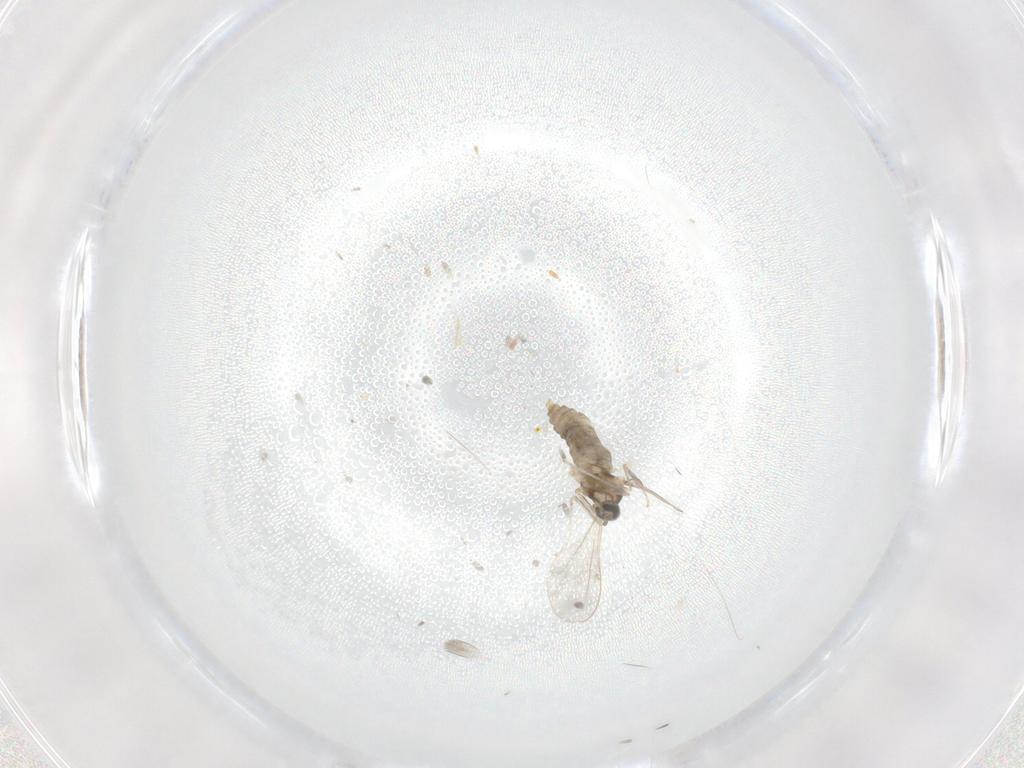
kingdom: Animalia
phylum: Arthropoda
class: Insecta
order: Diptera
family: Cecidomyiidae
